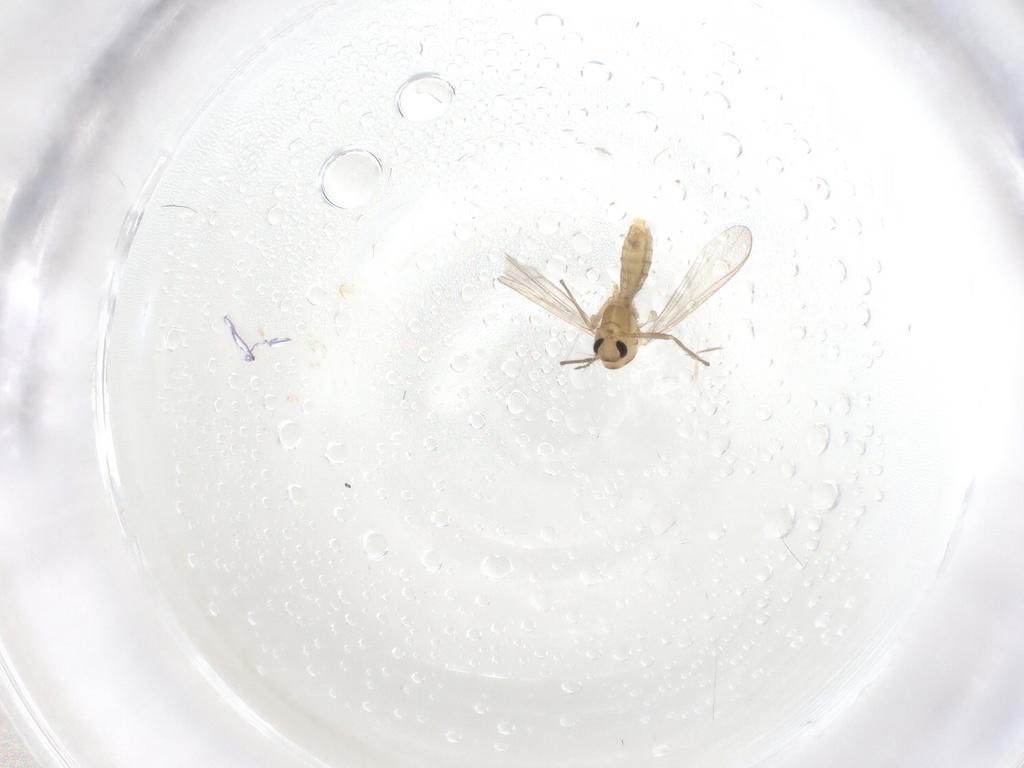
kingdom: Animalia
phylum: Arthropoda
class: Insecta
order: Diptera
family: Chironomidae
